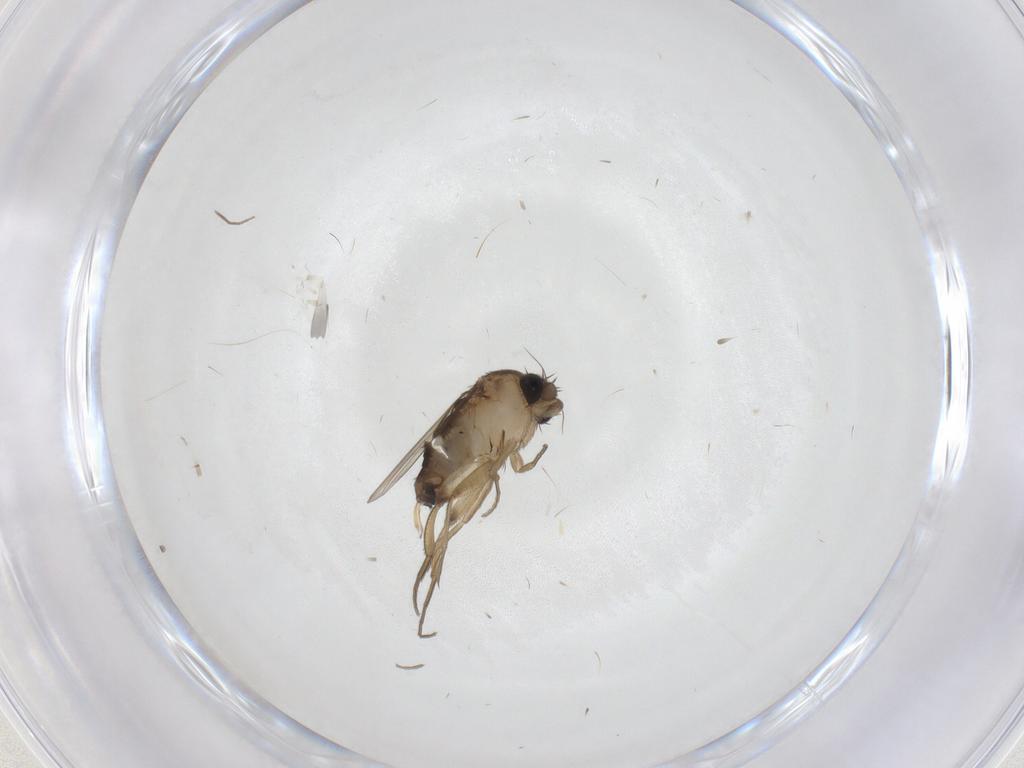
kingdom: Animalia
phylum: Arthropoda
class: Insecta
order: Diptera
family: Phoridae
